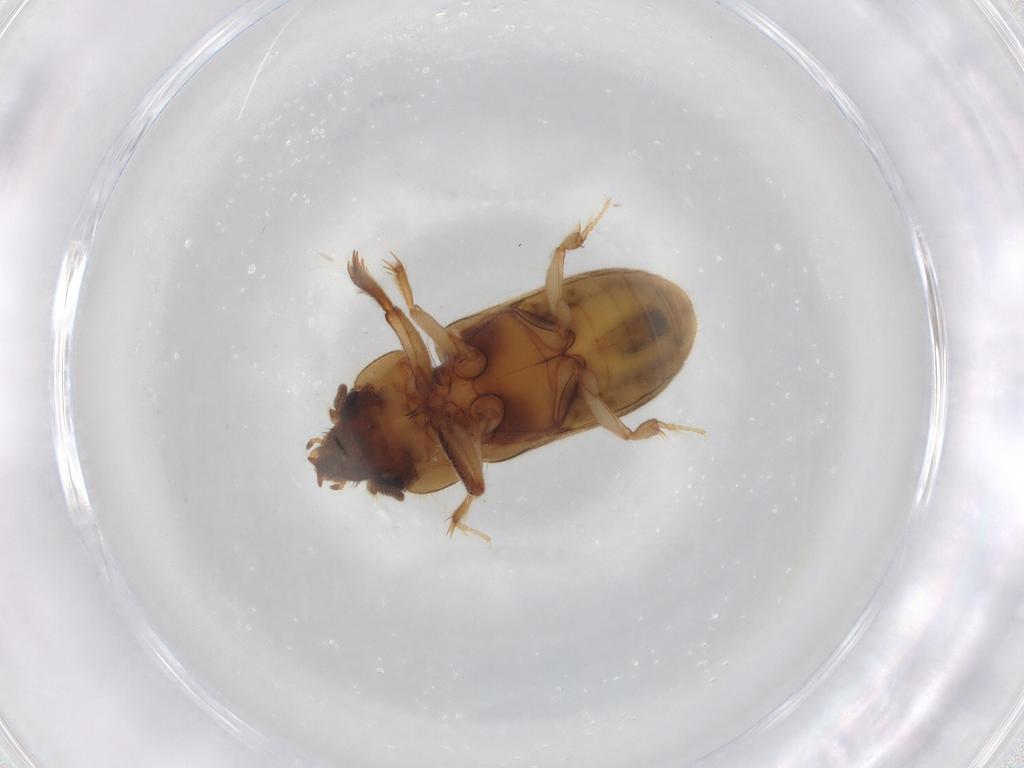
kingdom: Animalia
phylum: Arthropoda
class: Insecta
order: Coleoptera
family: Heteroceridae
